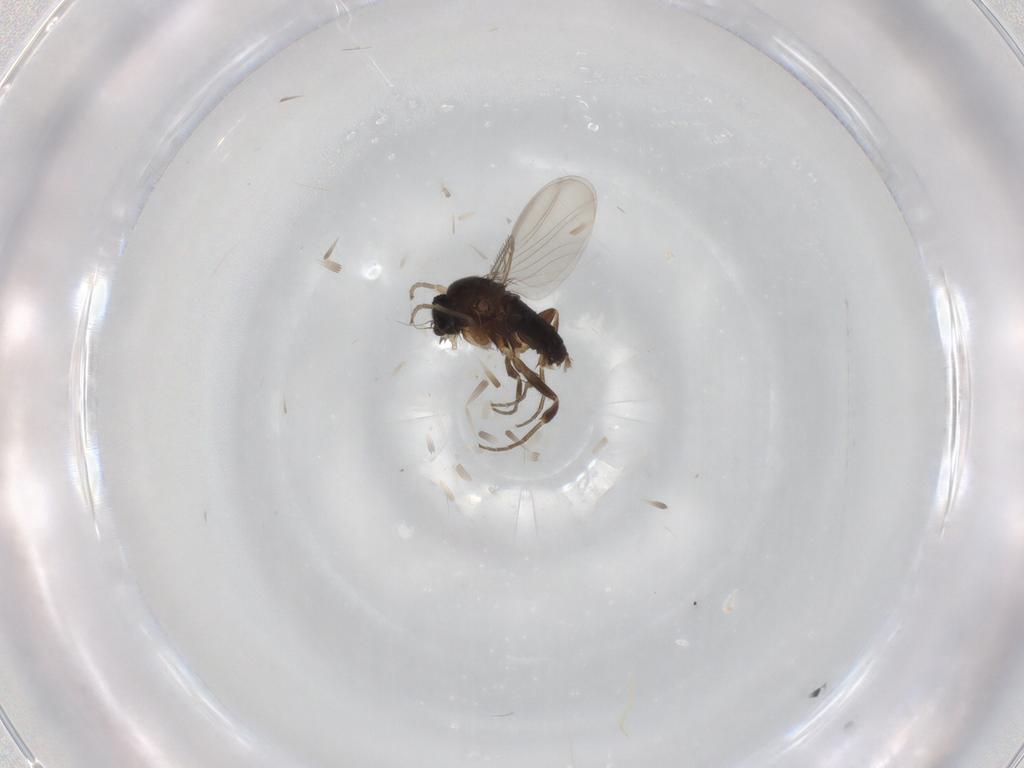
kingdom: Animalia
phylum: Arthropoda
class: Insecta
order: Diptera
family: Phoridae
